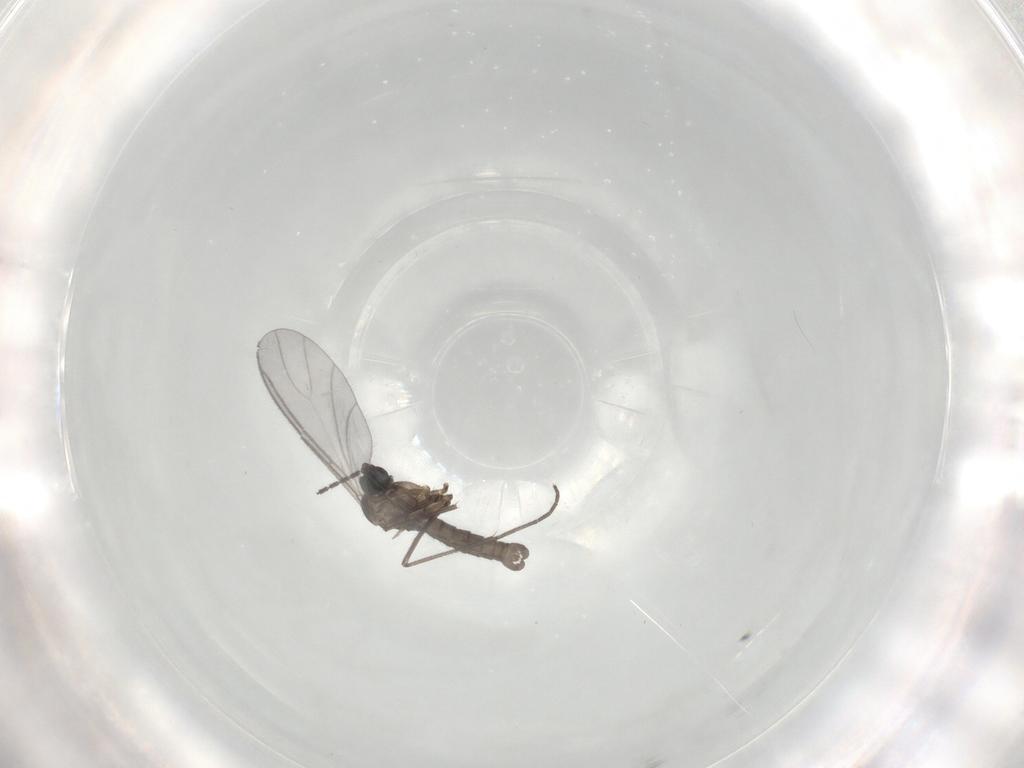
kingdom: Animalia
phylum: Arthropoda
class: Insecta
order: Diptera
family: Sciaridae
